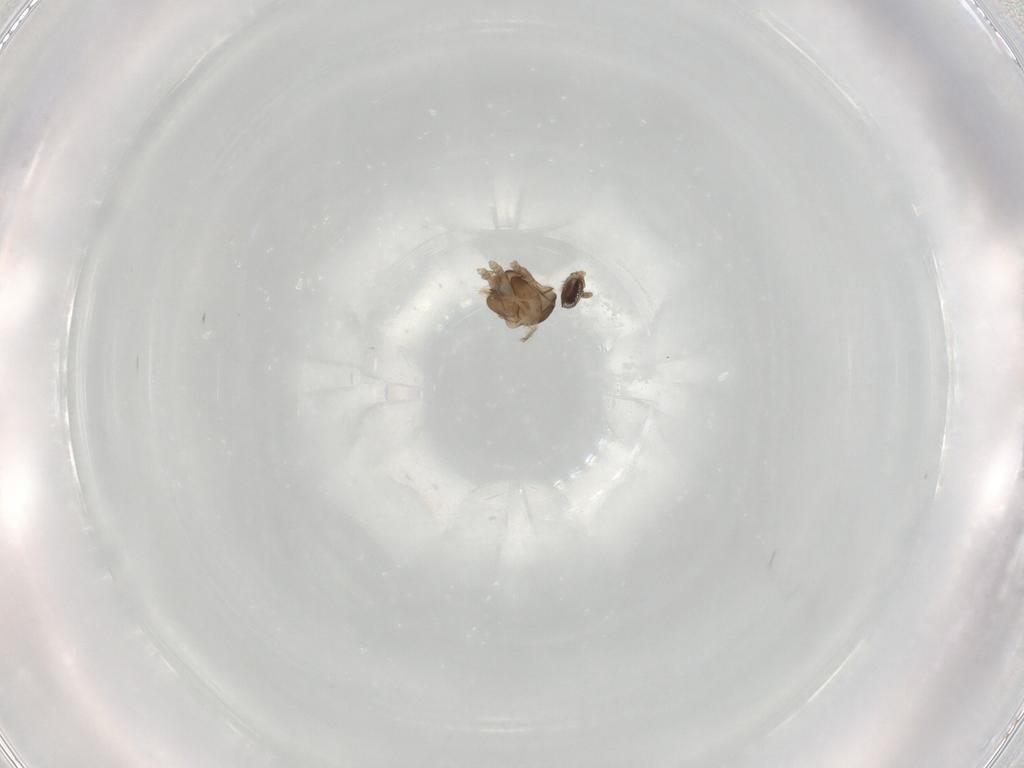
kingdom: Animalia
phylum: Arthropoda
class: Insecta
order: Diptera
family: Cecidomyiidae
